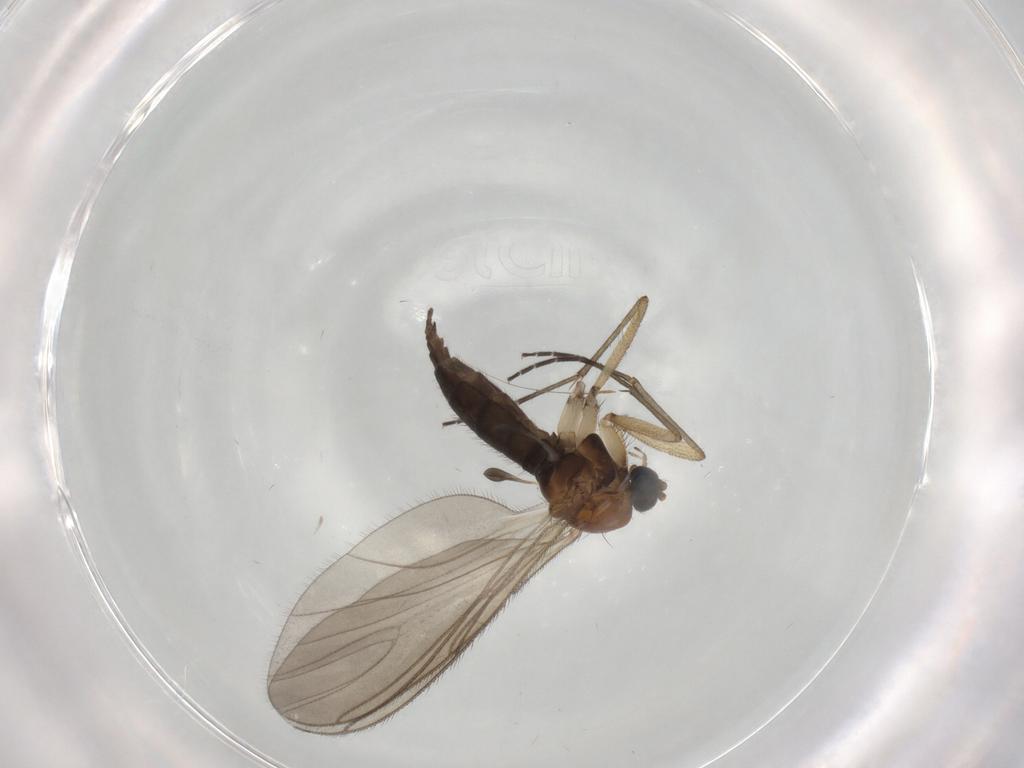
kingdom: Animalia
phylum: Arthropoda
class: Insecta
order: Diptera
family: Sciaridae
